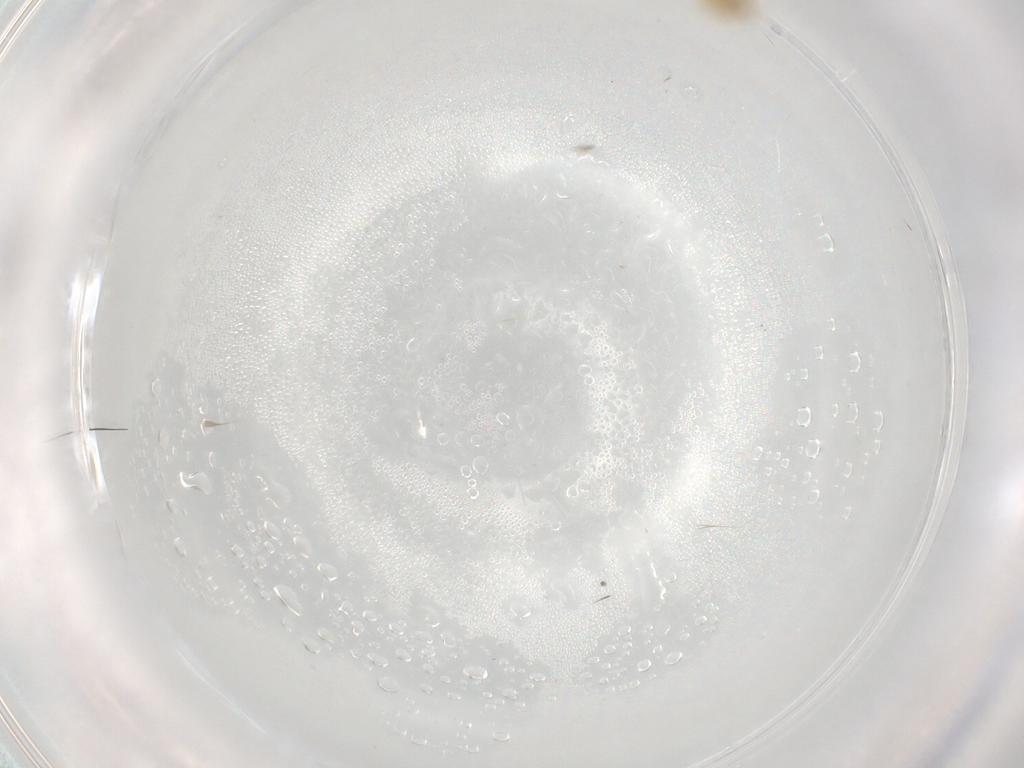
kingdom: Animalia
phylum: Arthropoda
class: Insecta
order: Coleoptera
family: Chrysomelidae
